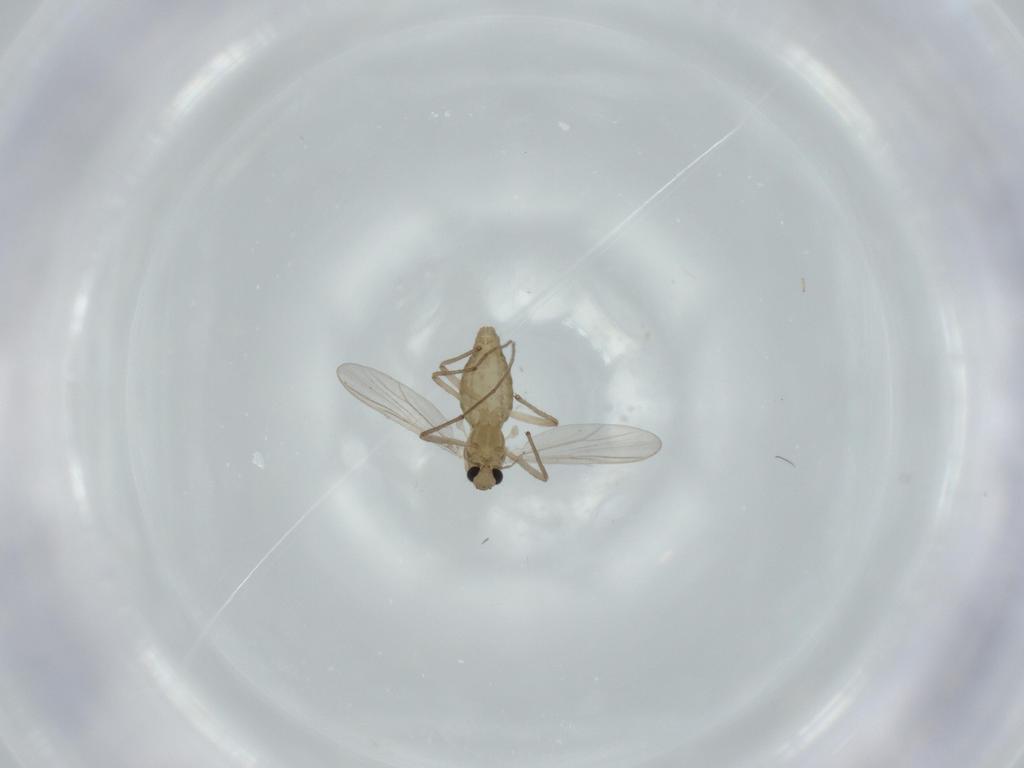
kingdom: Animalia
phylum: Arthropoda
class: Insecta
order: Diptera
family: Chironomidae
